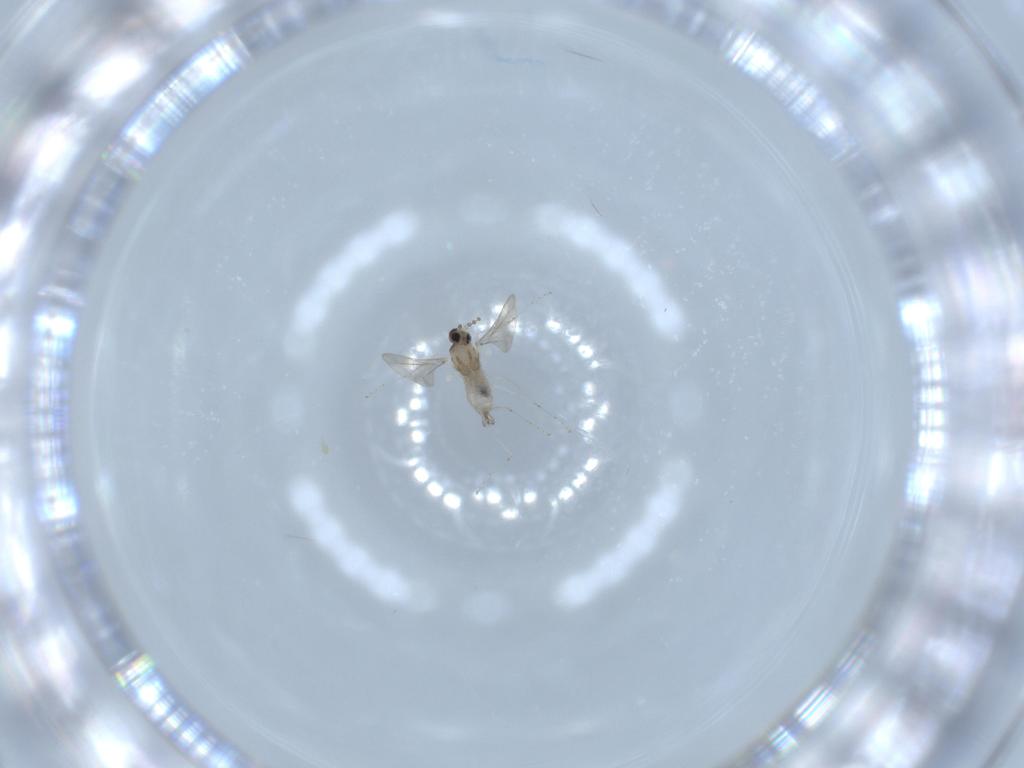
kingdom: Animalia
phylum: Arthropoda
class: Insecta
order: Diptera
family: Cecidomyiidae
